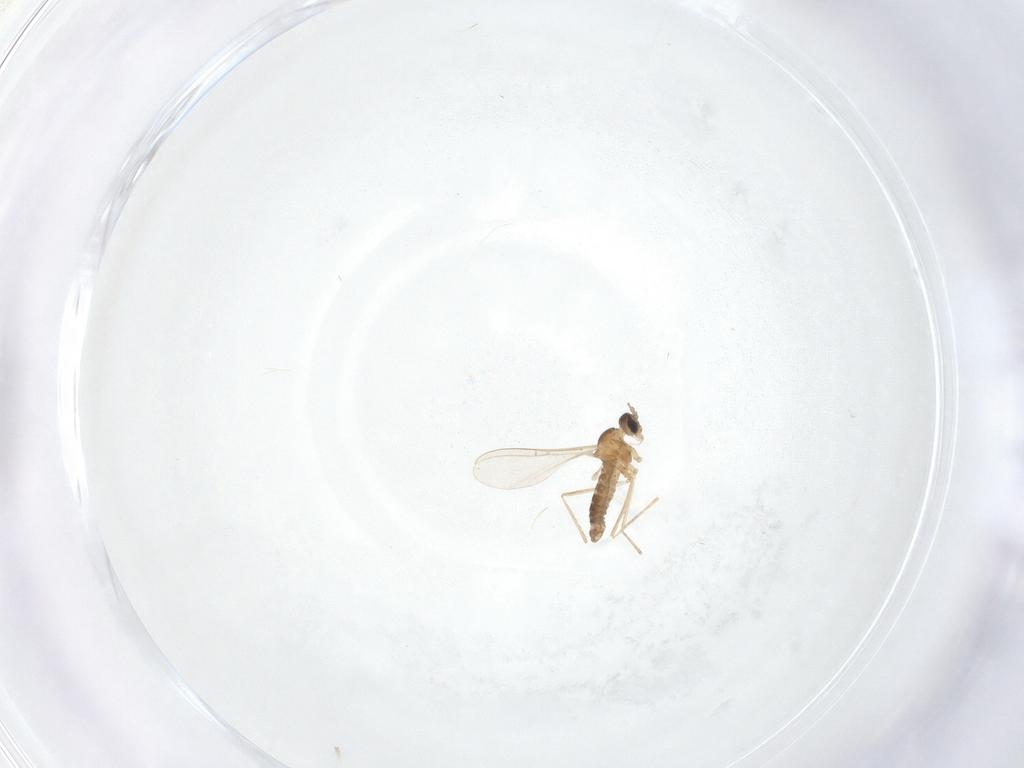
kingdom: Animalia
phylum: Arthropoda
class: Insecta
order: Diptera
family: Cecidomyiidae
